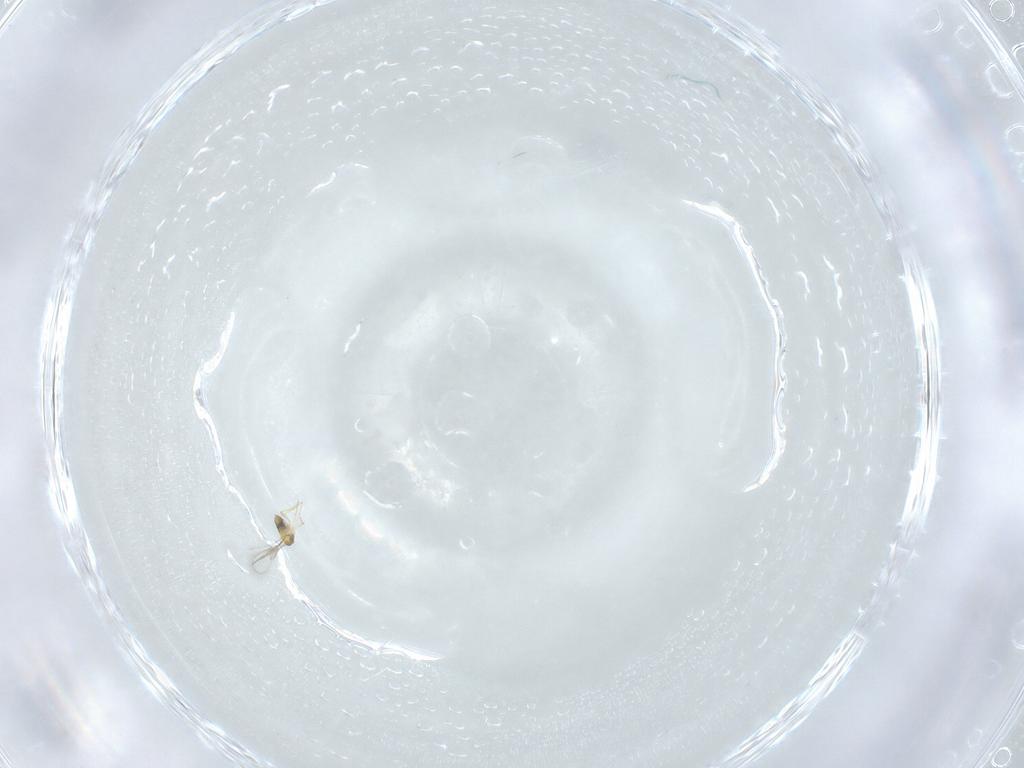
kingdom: Animalia
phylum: Arthropoda
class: Insecta
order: Hymenoptera
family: Trichogrammatidae
